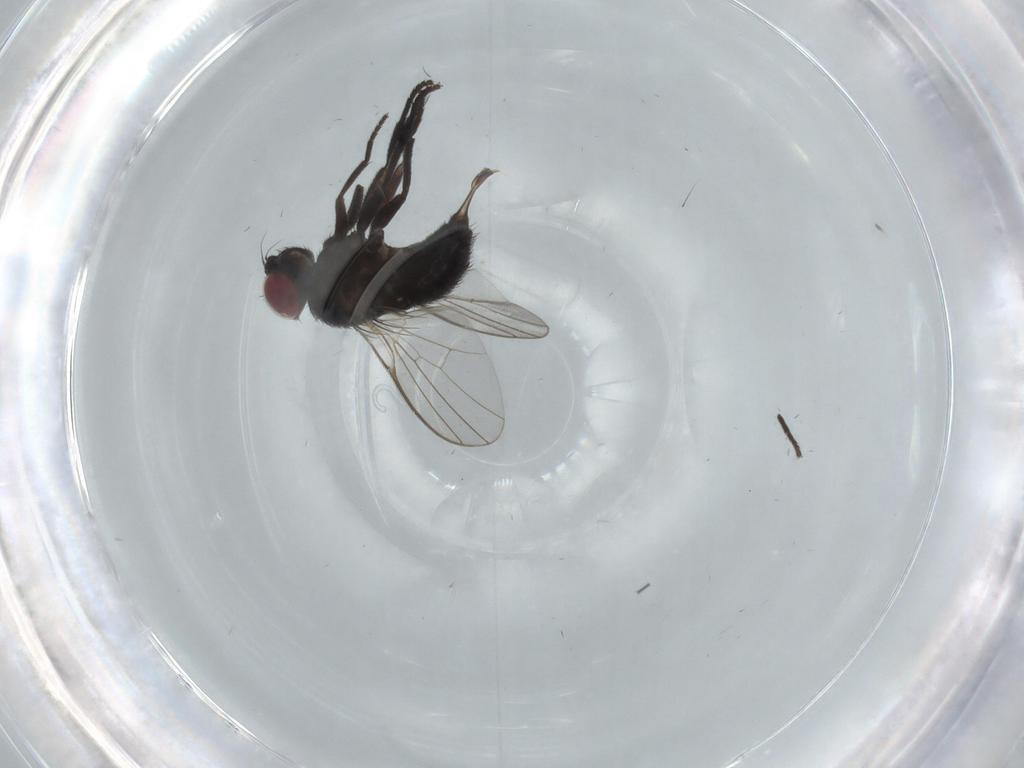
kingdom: Animalia
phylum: Arthropoda
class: Insecta
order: Diptera
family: Agromyzidae
